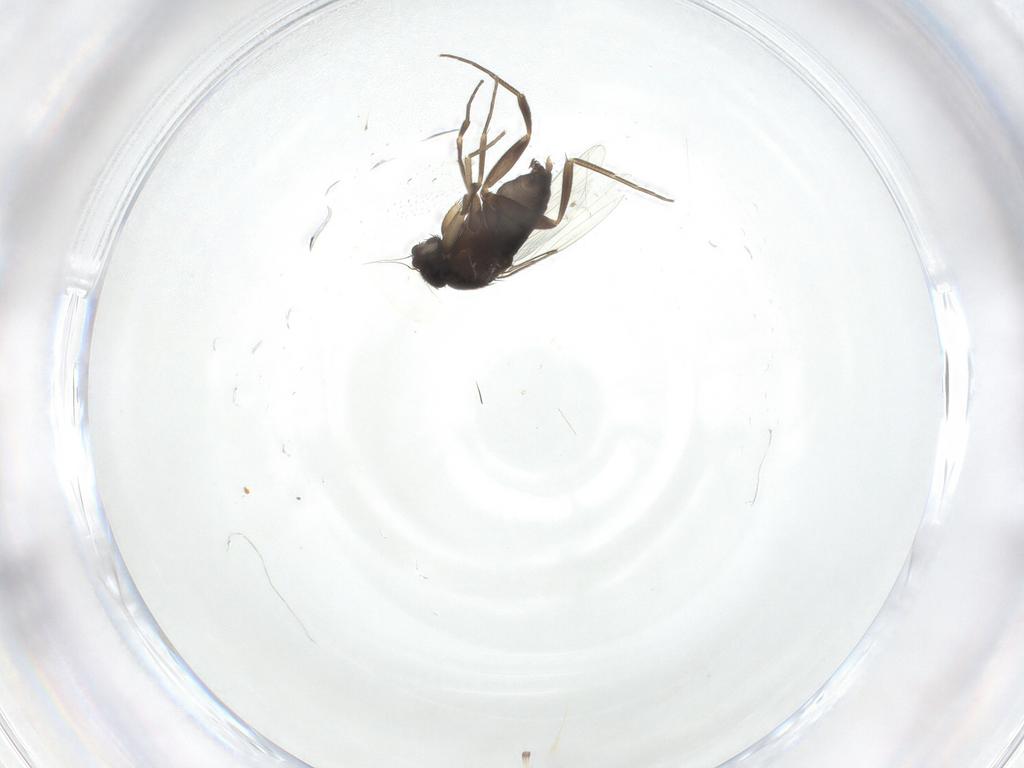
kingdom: Animalia
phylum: Arthropoda
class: Insecta
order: Diptera
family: Phoridae
